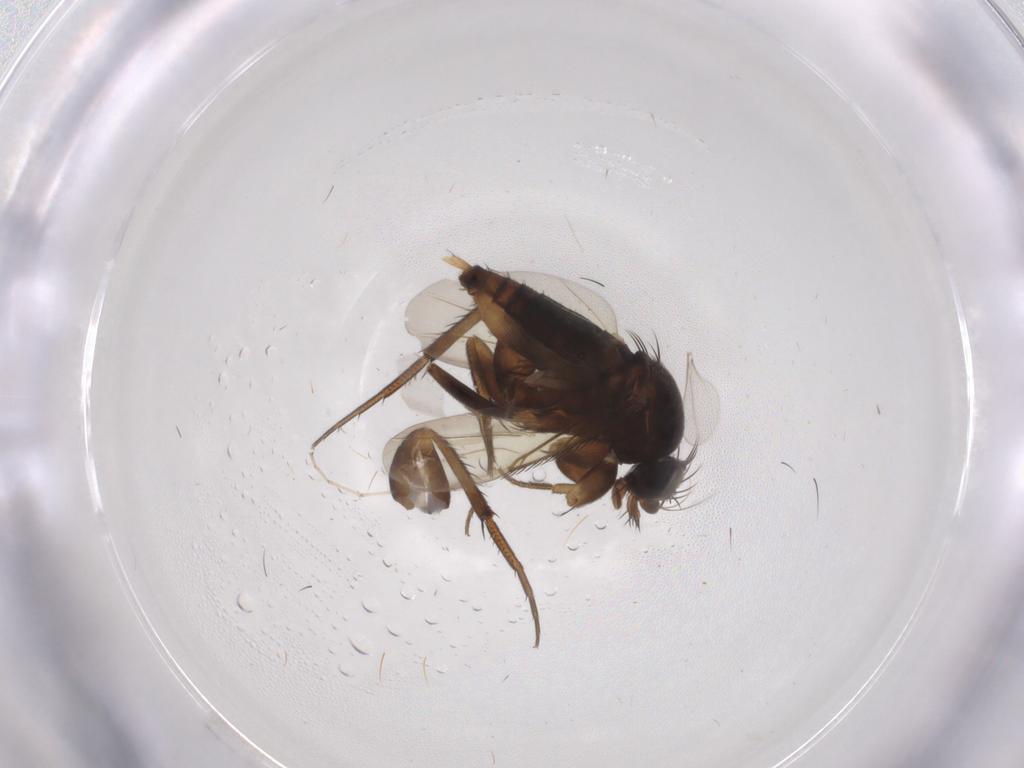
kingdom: Animalia
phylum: Arthropoda
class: Insecta
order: Diptera
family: Phoridae
